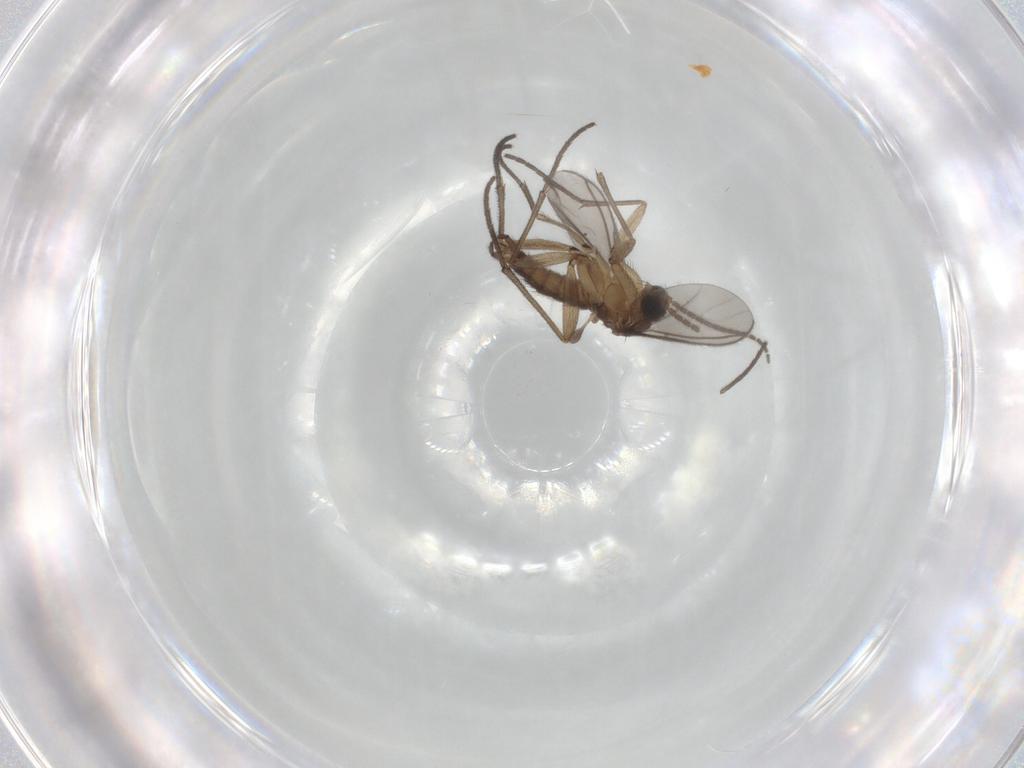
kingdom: Animalia
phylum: Arthropoda
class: Insecta
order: Diptera
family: Sciaridae
